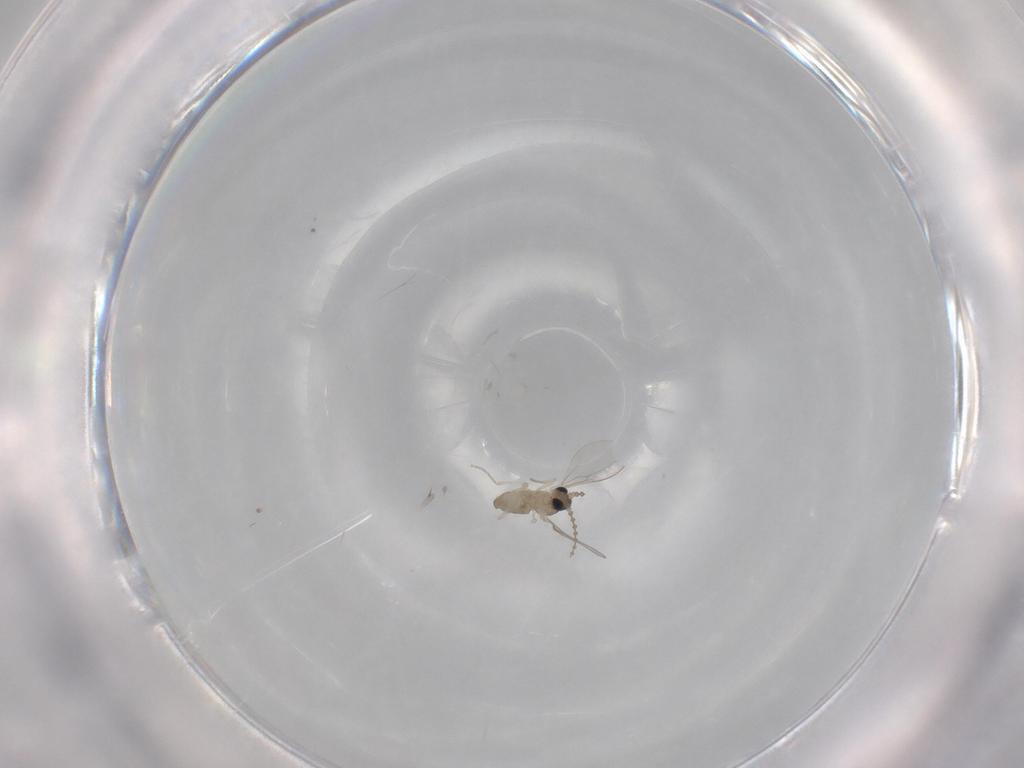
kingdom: Animalia
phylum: Arthropoda
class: Insecta
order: Diptera
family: Cecidomyiidae
